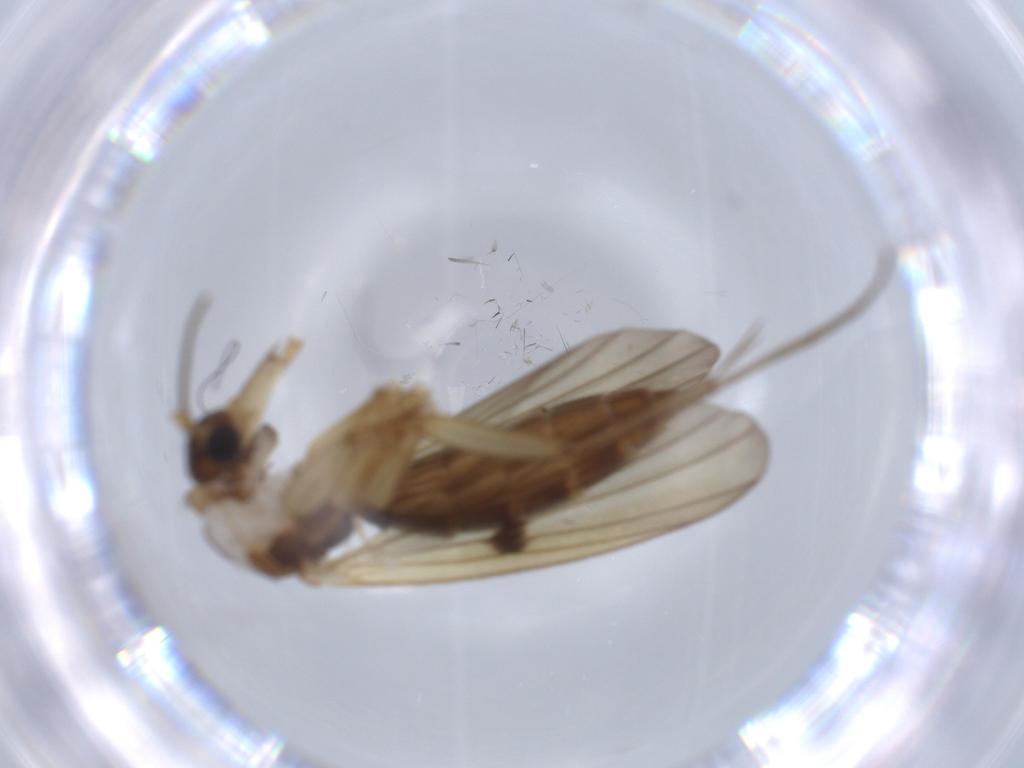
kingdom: Animalia
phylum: Arthropoda
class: Insecta
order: Diptera
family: Mycetophilidae
